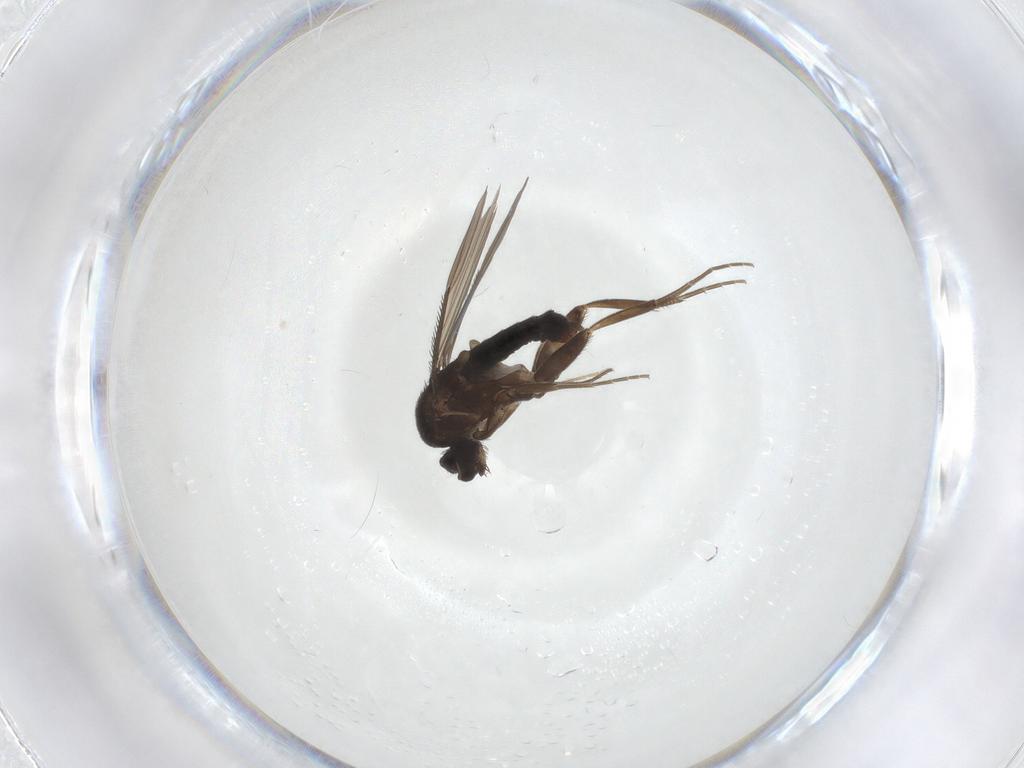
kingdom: Animalia
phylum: Arthropoda
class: Insecta
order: Diptera
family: Phoridae
